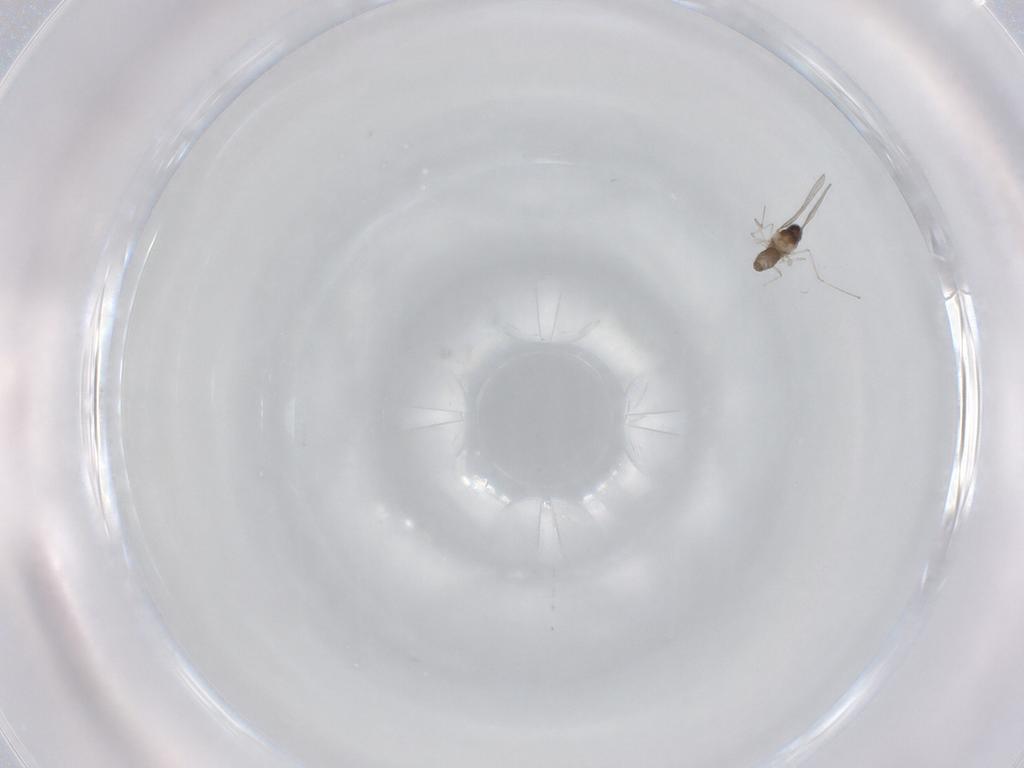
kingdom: Animalia
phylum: Arthropoda
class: Insecta
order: Diptera
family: Cecidomyiidae
